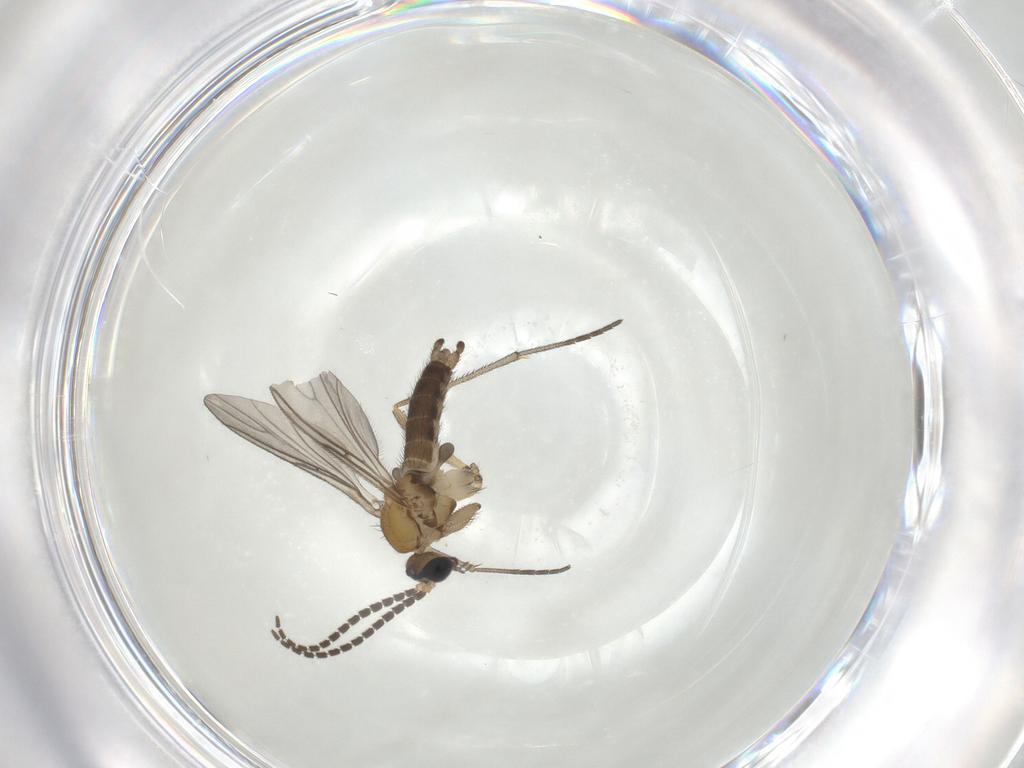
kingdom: Animalia
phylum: Arthropoda
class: Insecta
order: Diptera
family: Sciaridae
